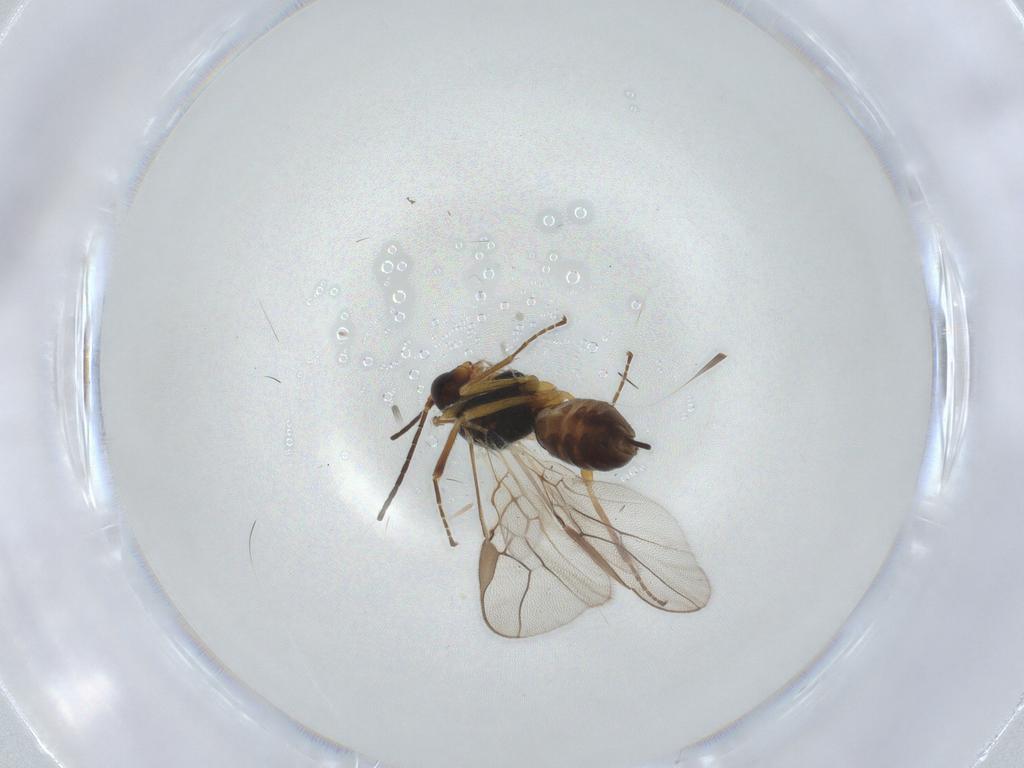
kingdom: Animalia
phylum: Arthropoda
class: Insecta
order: Hymenoptera
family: Braconidae
